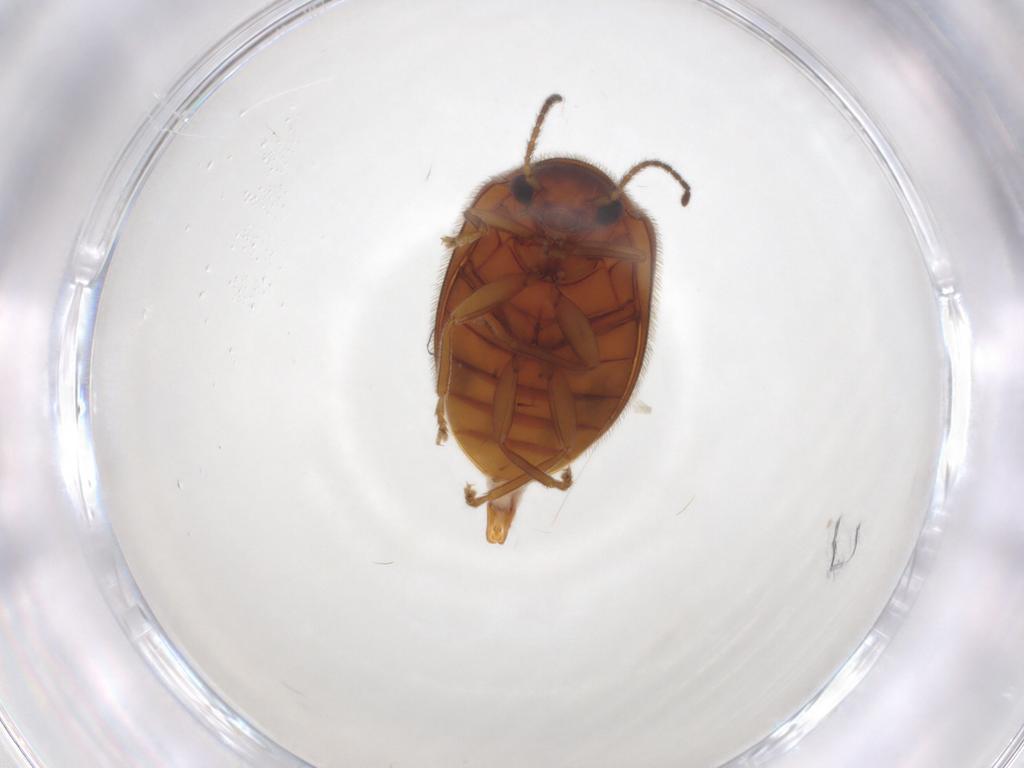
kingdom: Animalia
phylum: Arthropoda
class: Insecta
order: Coleoptera
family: Scirtidae
